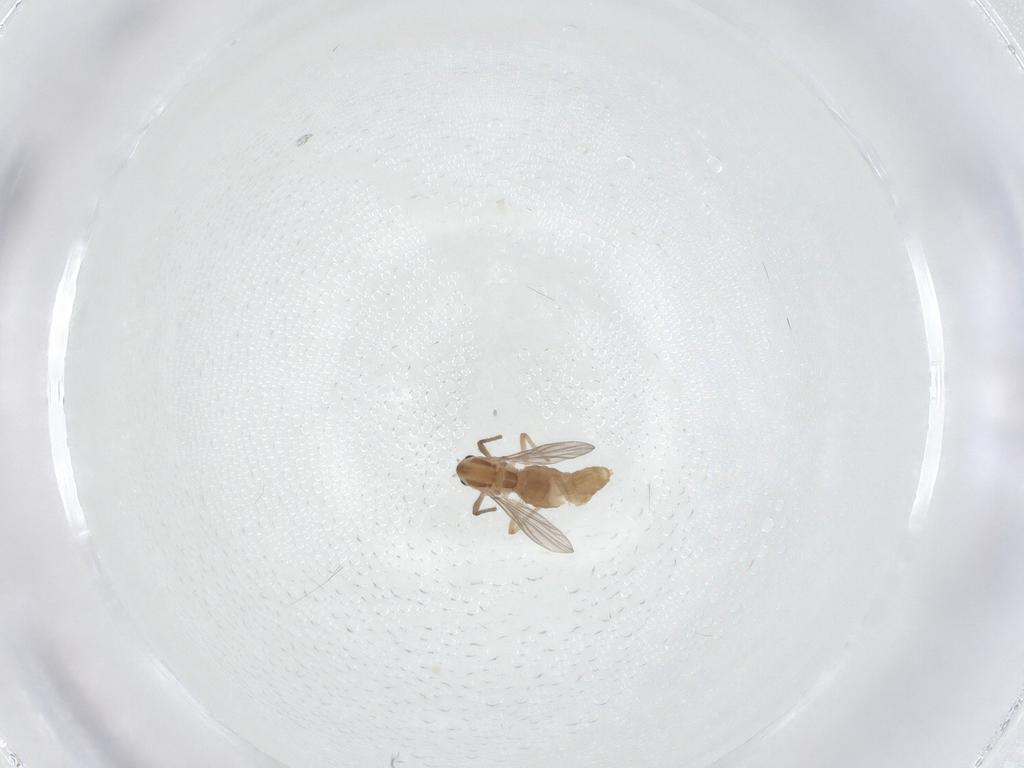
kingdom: Animalia
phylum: Arthropoda
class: Insecta
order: Diptera
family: Chironomidae
